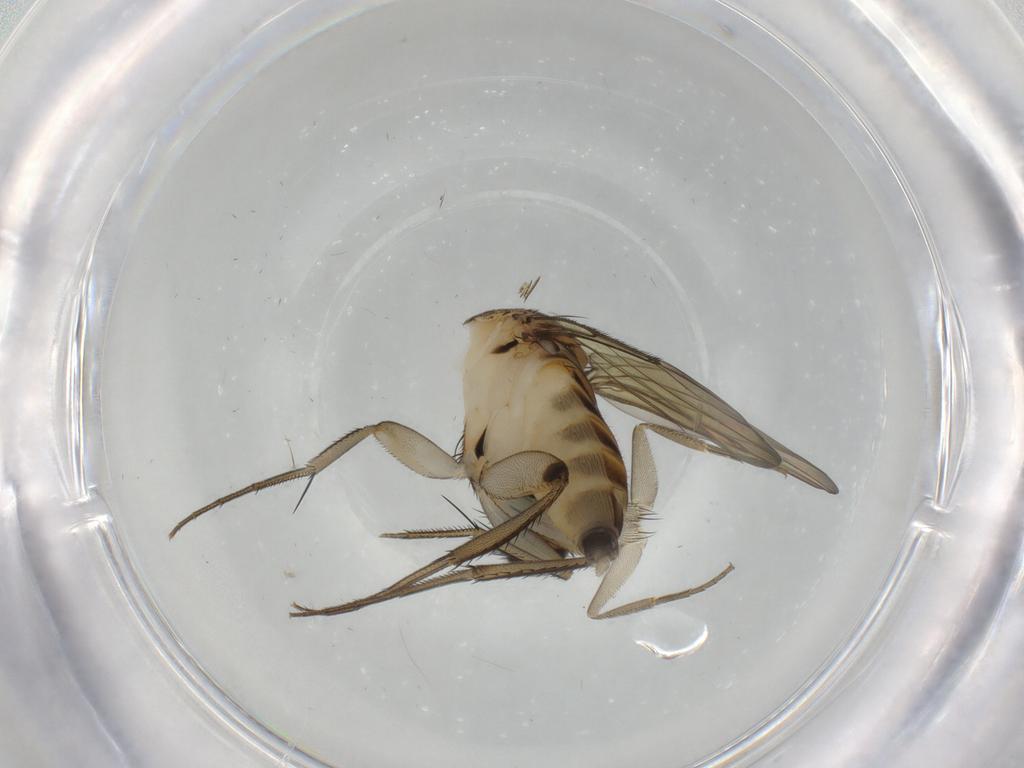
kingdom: Animalia
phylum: Arthropoda
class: Insecta
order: Diptera
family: Phoridae
